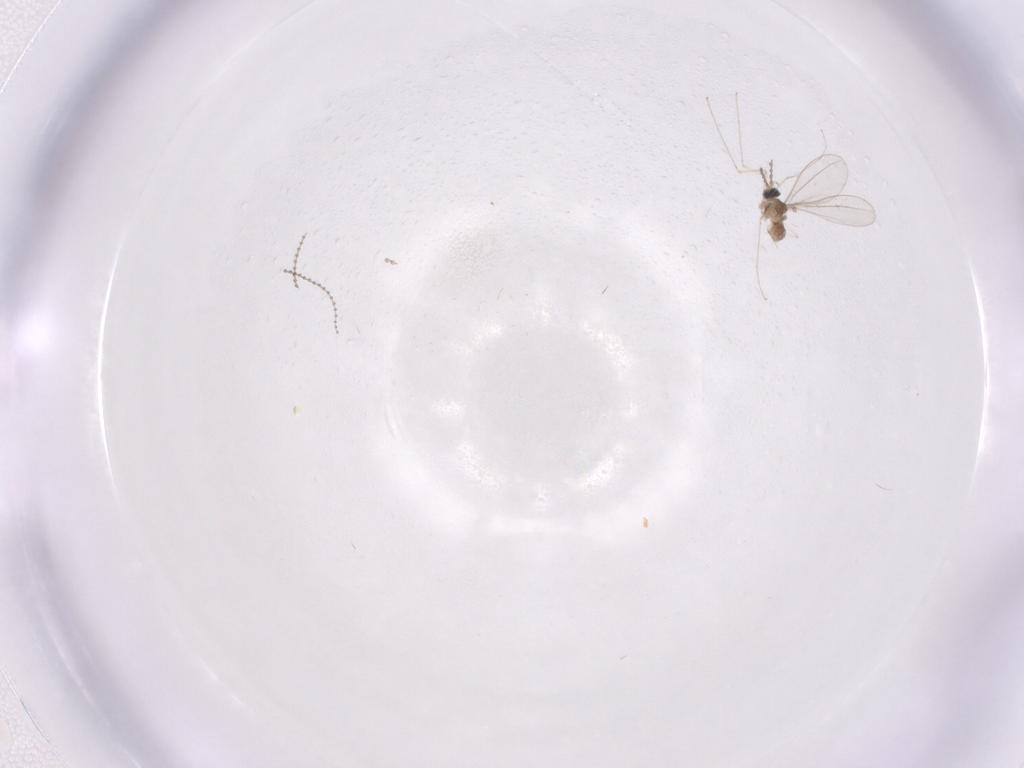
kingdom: Animalia
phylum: Arthropoda
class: Insecta
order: Diptera
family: Cecidomyiidae
